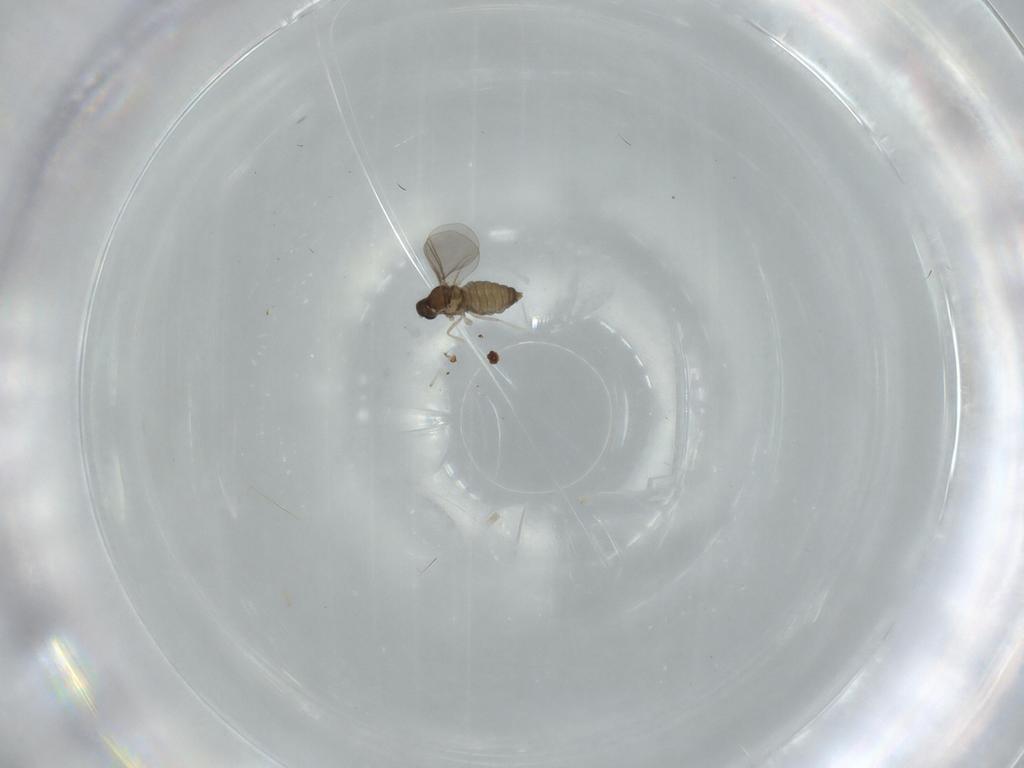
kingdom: Animalia
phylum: Arthropoda
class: Insecta
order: Diptera
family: Cecidomyiidae
